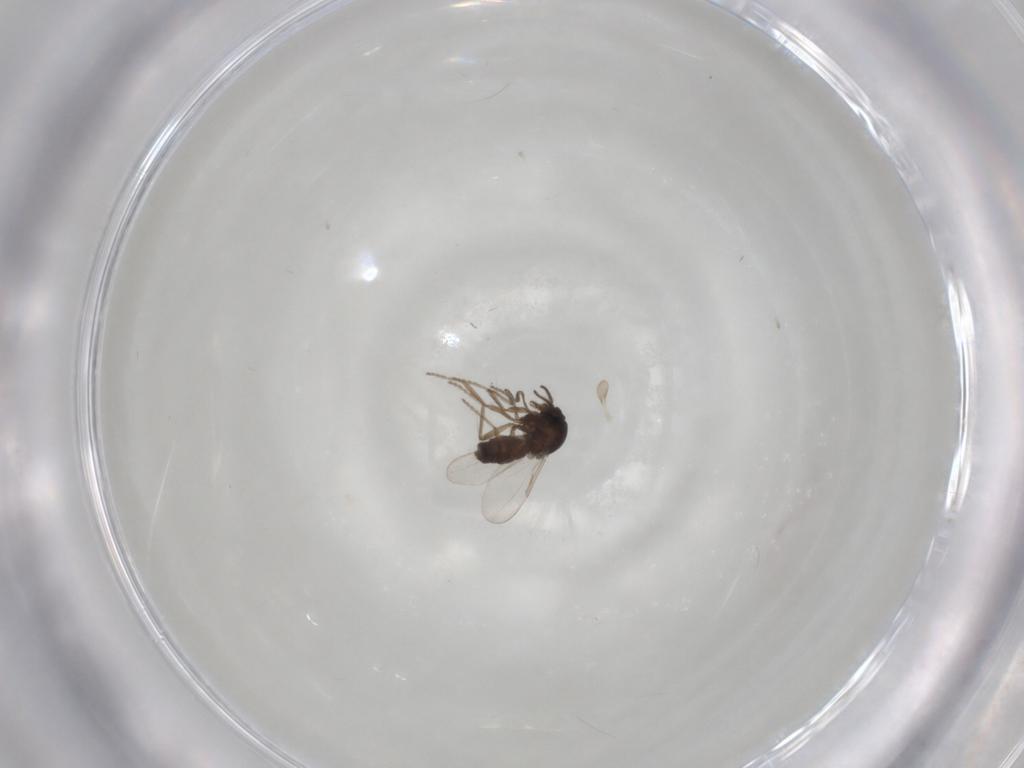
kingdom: Animalia
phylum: Arthropoda
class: Insecta
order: Diptera
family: Ceratopogonidae
